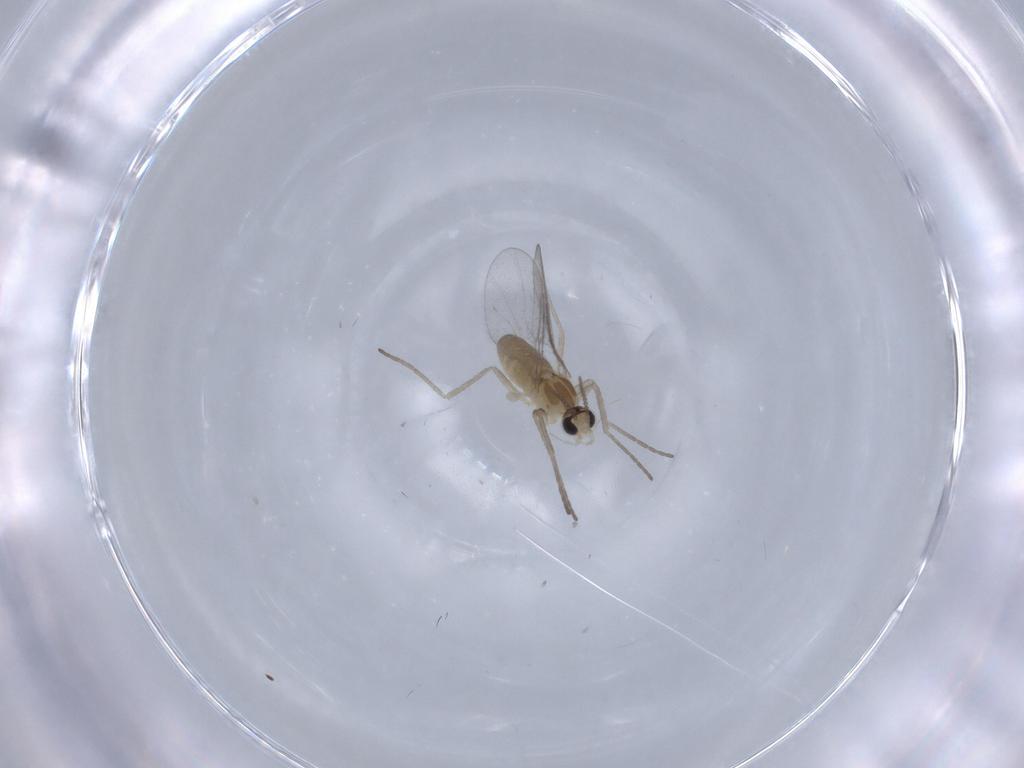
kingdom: Animalia
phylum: Arthropoda
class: Insecta
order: Diptera
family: Cecidomyiidae
